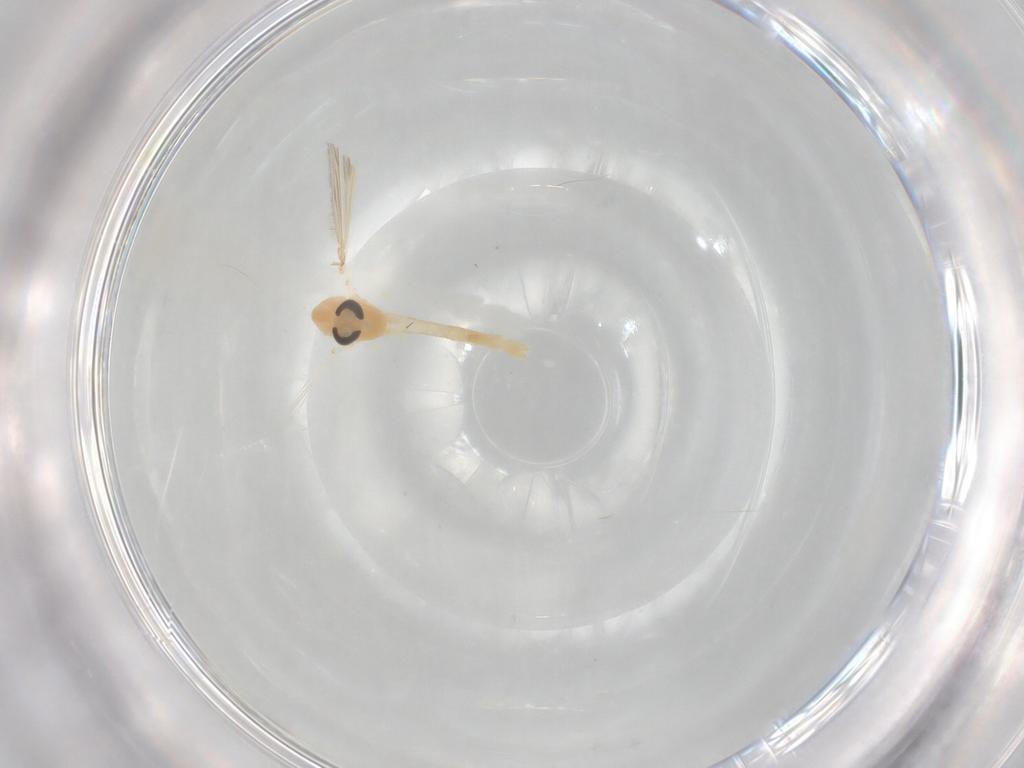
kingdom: Animalia
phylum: Arthropoda
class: Insecta
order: Diptera
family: Chironomidae
